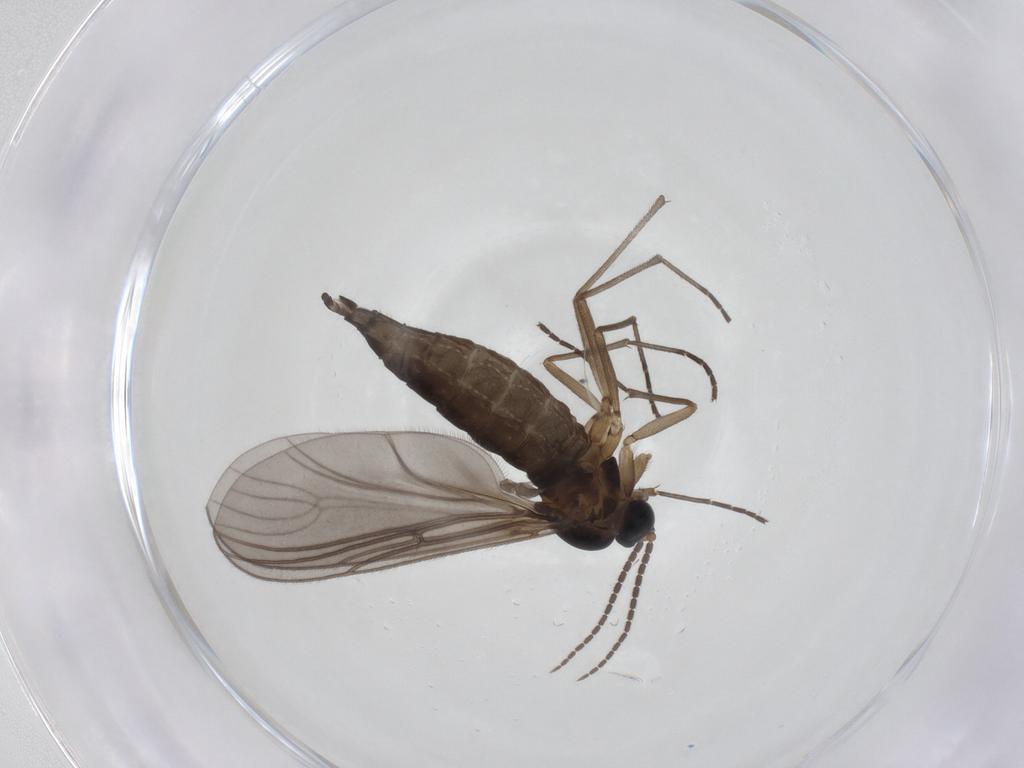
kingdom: Animalia
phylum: Arthropoda
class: Insecta
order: Diptera
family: Sciaridae
